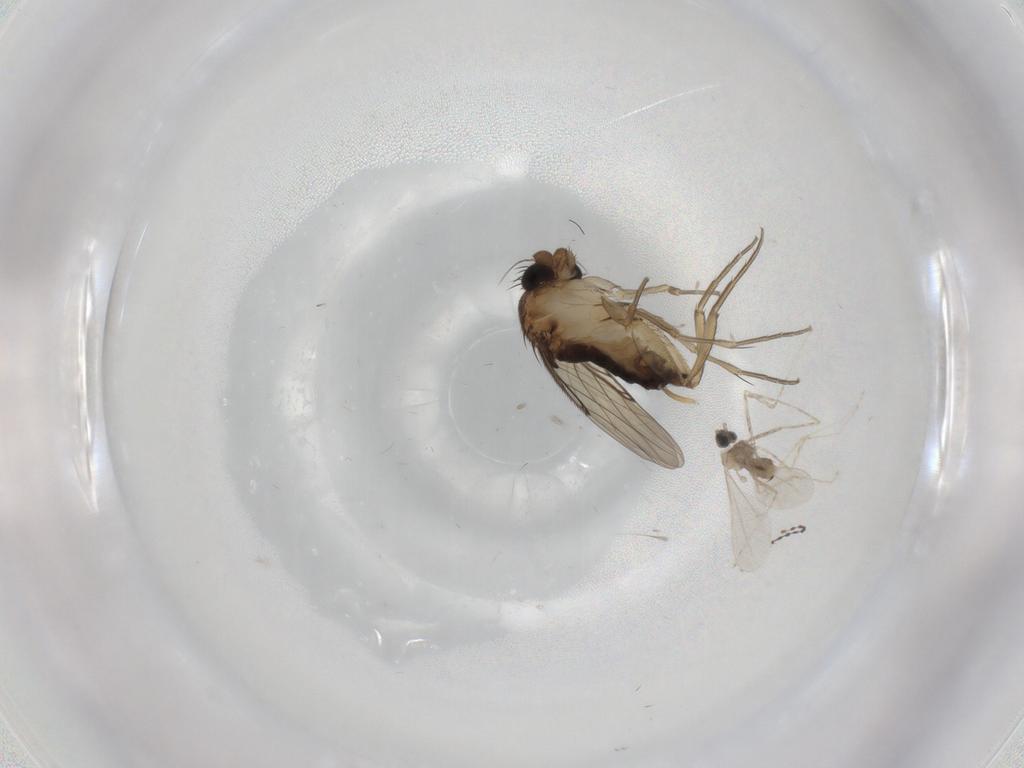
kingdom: Animalia
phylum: Arthropoda
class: Insecta
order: Diptera
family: Phoridae
